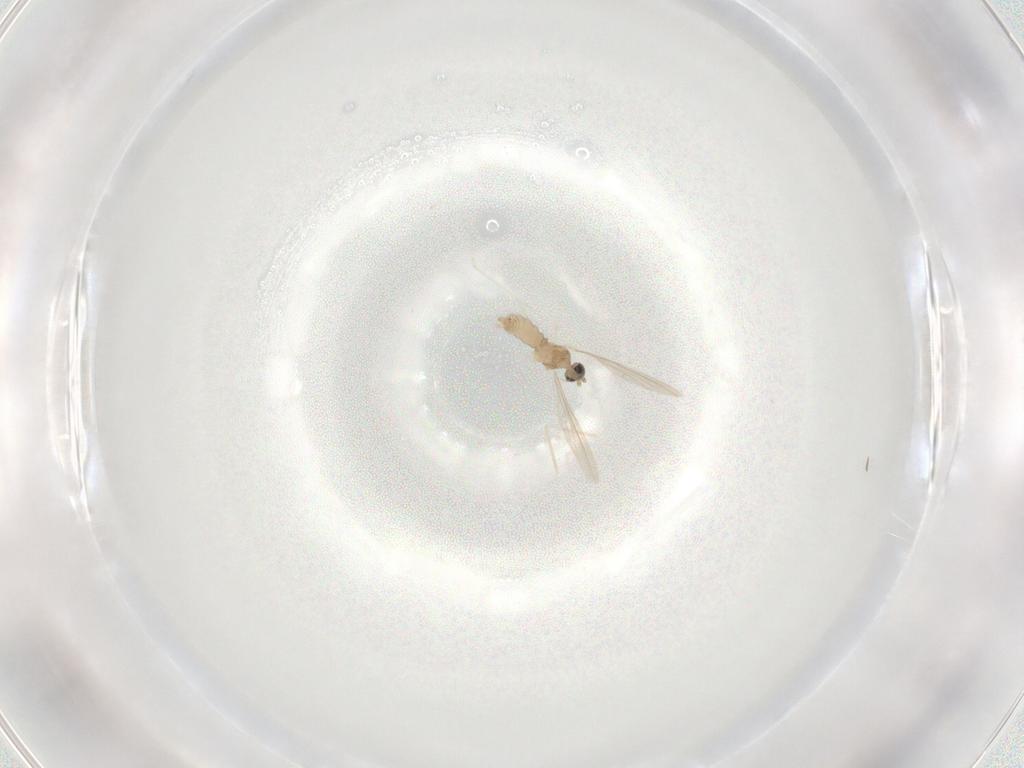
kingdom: Animalia
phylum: Arthropoda
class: Insecta
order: Diptera
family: Cecidomyiidae
